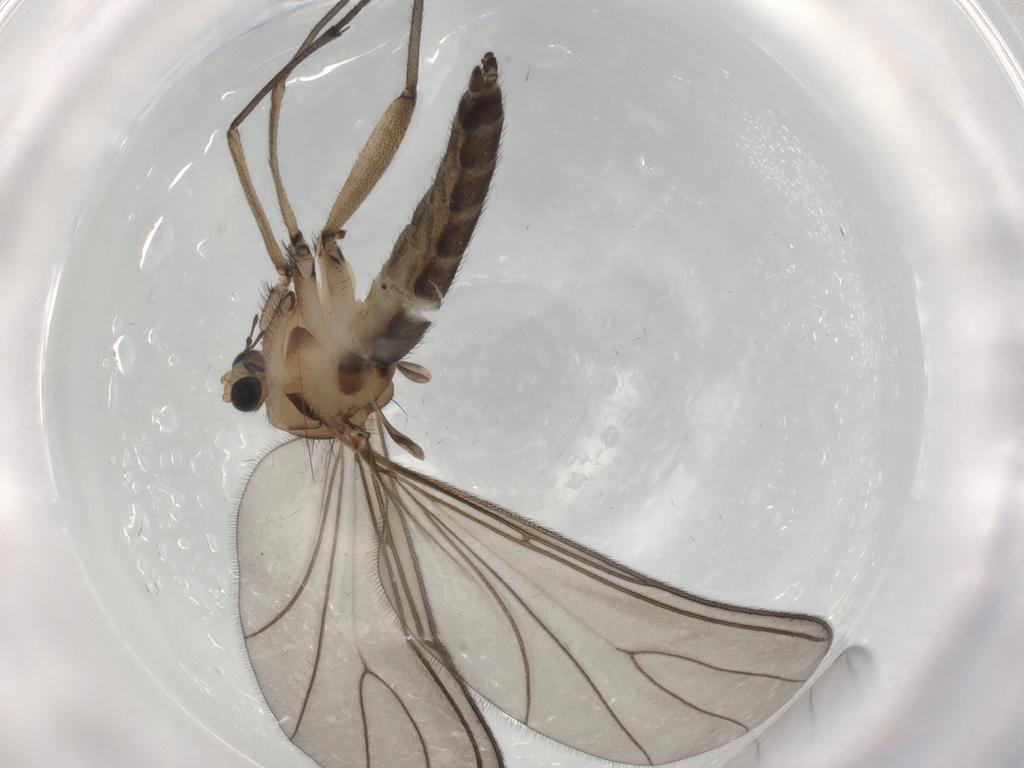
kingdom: Animalia
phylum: Arthropoda
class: Insecta
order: Diptera
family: Sciaridae
